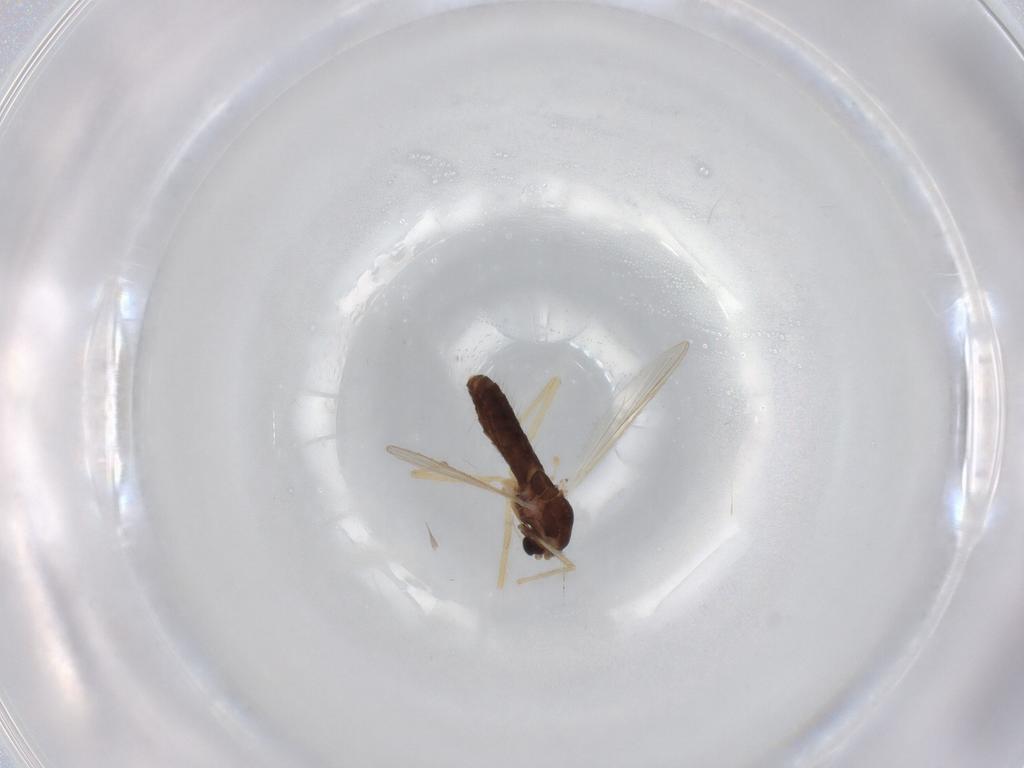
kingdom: Animalia
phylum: Arthropoda
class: Insecta
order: Diptera
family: Chironomidae
